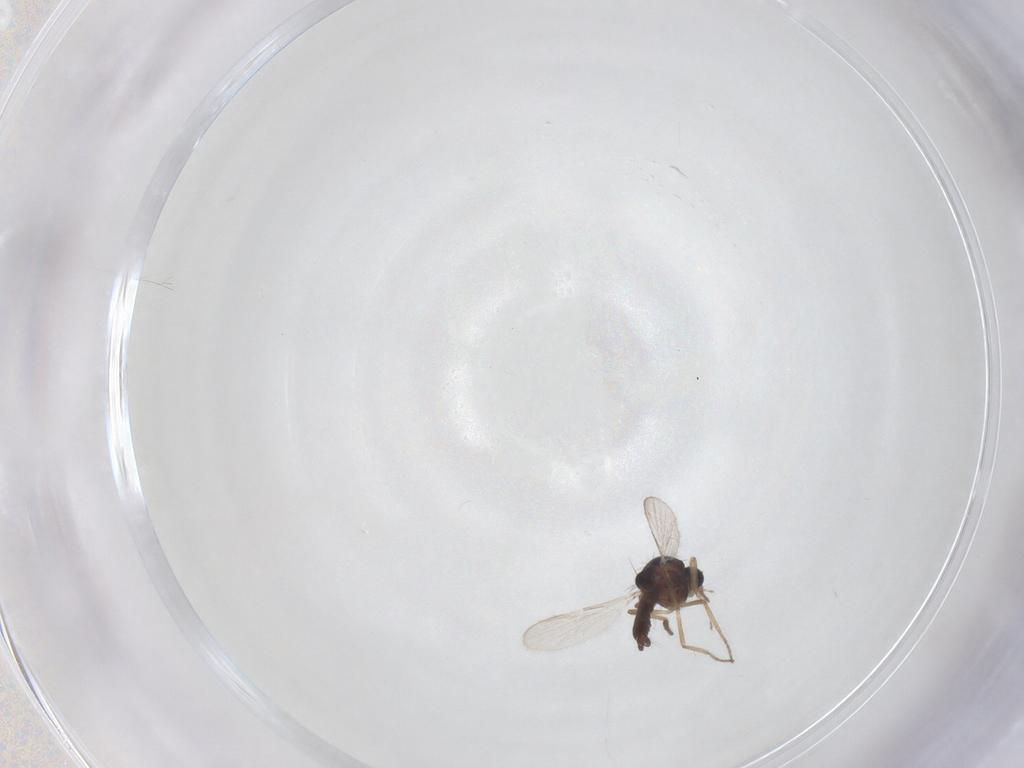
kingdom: Animalia
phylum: Arthropoda
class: Insecta
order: Diptera
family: Ceratopogonidae
